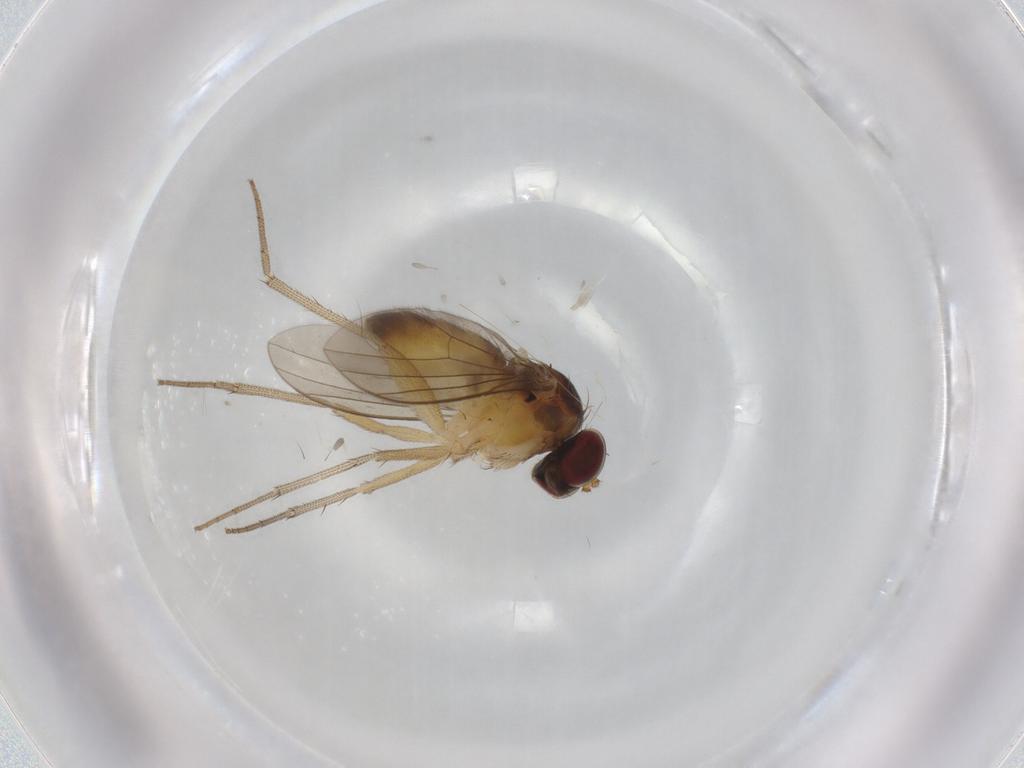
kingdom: Animalia
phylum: Arthropoda
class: Insecta
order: Diptera
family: Dolichopodidae
